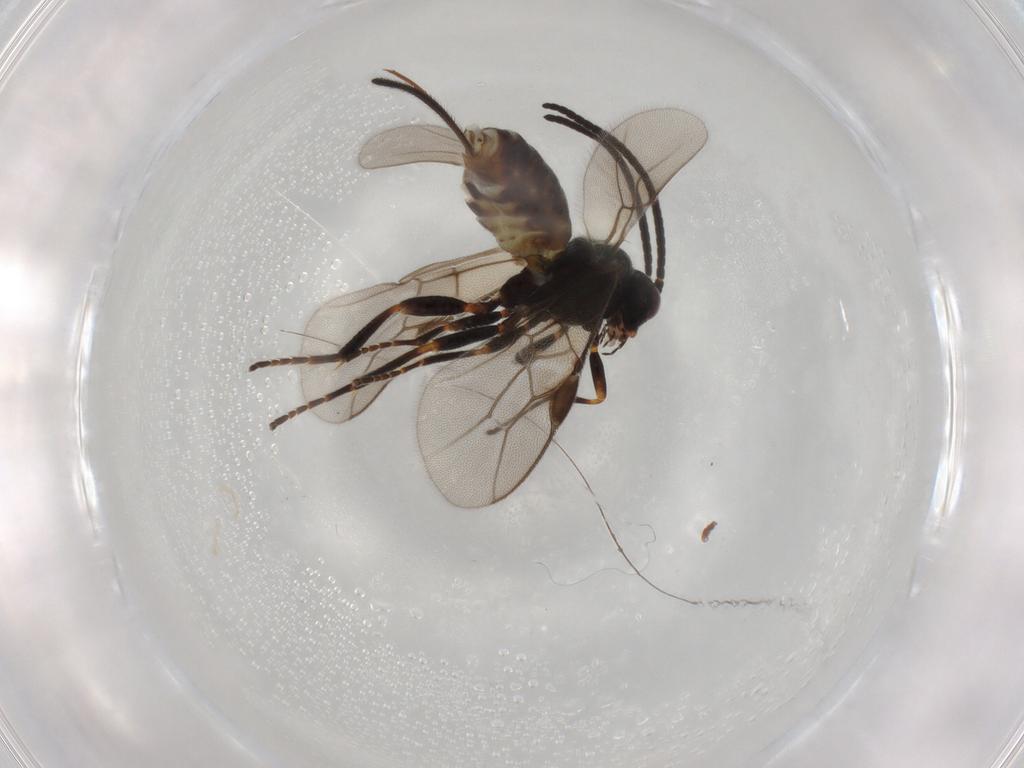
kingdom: Animalia
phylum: Arthropoda
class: Insecta
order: Hymenoptera
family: Braconidae
